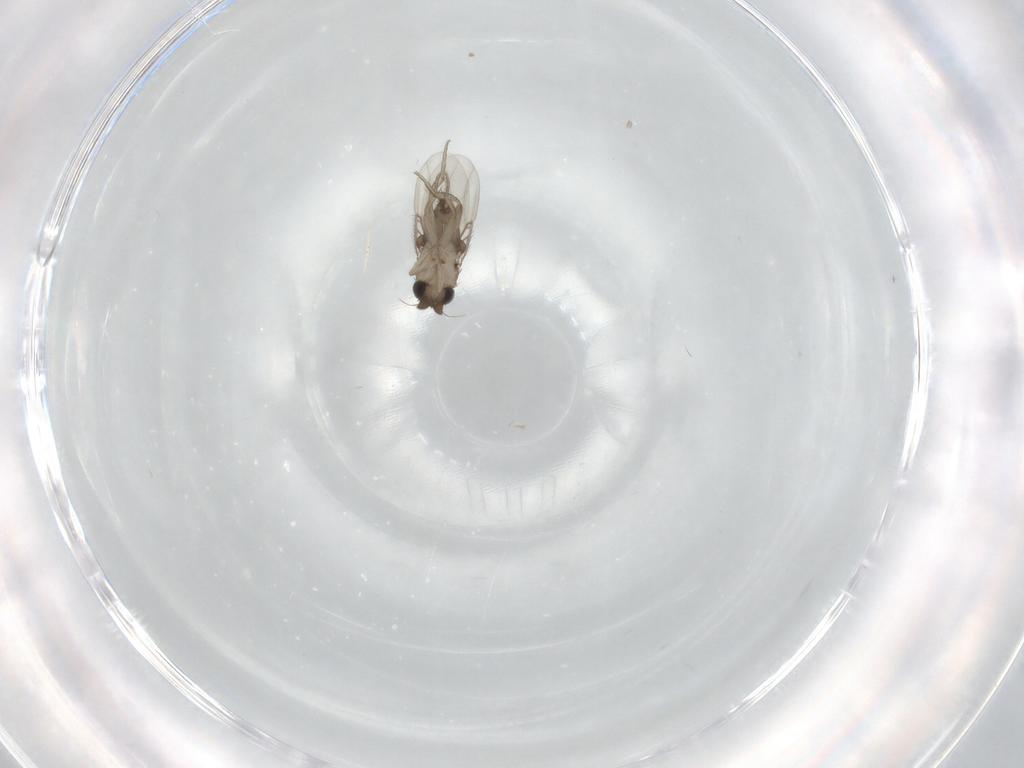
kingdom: Animalia
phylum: Arthropoda
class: Insecta
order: Diptera
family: Phoridae
